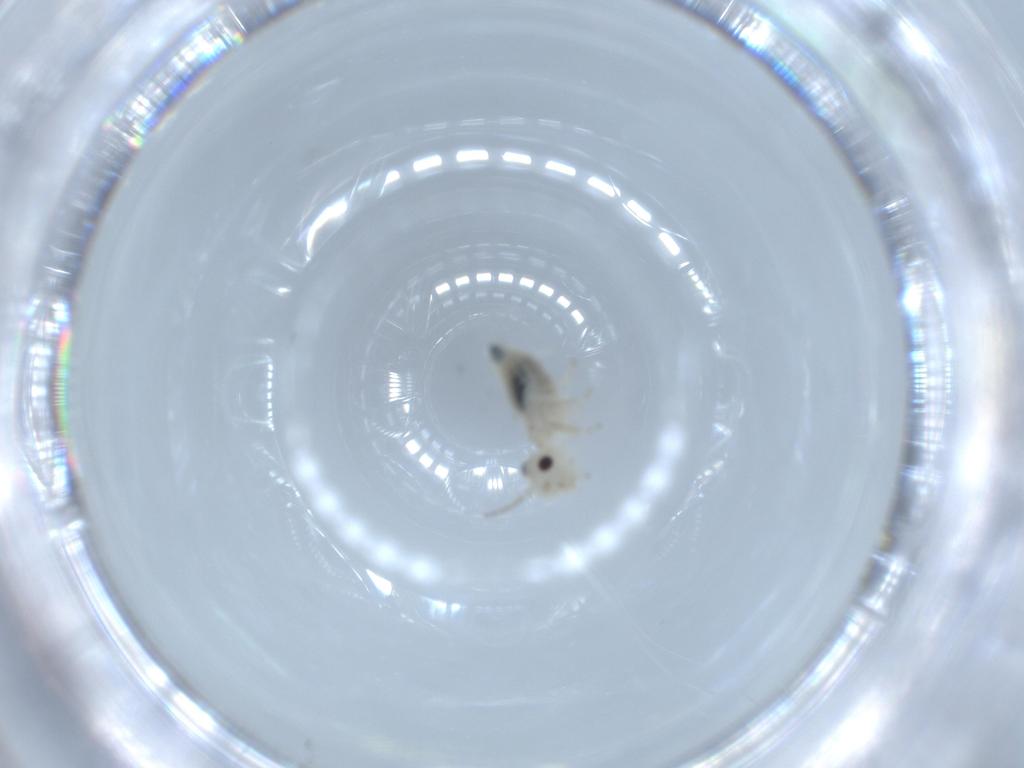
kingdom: Animalia
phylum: Arthropoda
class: Insecta
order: Psocodea
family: Caeciliusidae
